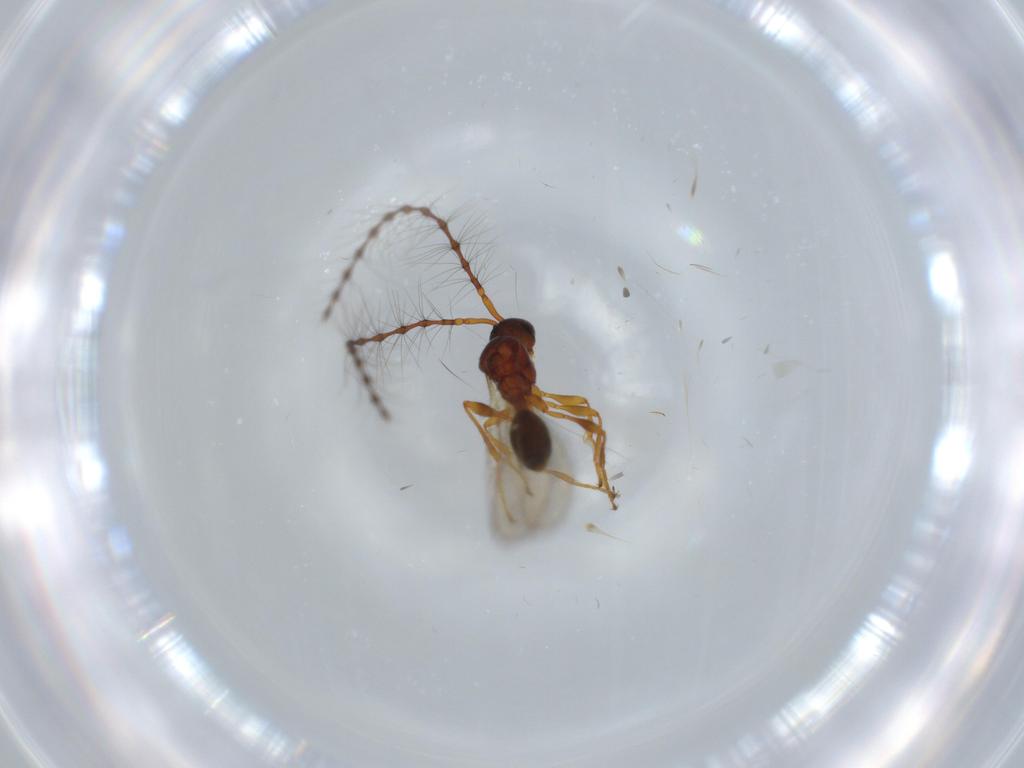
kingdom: Animalia
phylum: Arthropoda
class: Insecta
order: Hymenoptera
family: Diapriidae
